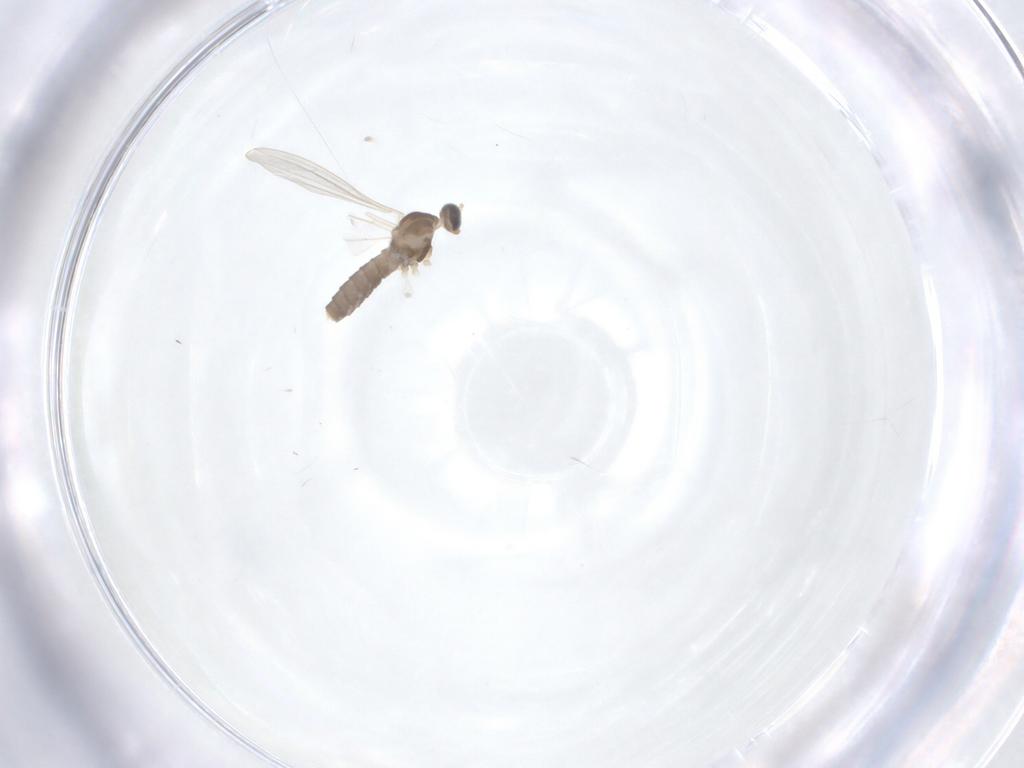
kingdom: Animalia
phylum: Arthropoda
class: Insecta
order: Diptera
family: Cecidomyiidae
